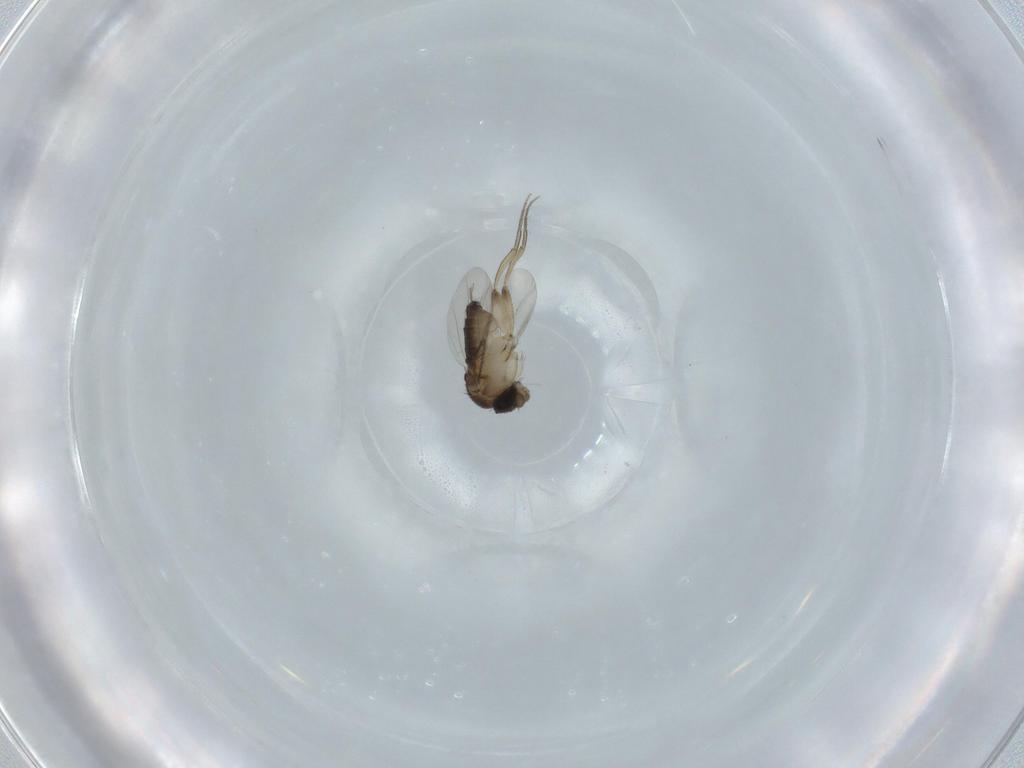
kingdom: Animalia
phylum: Arthropoda
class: Insecta
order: Diptera
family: Phoridae
